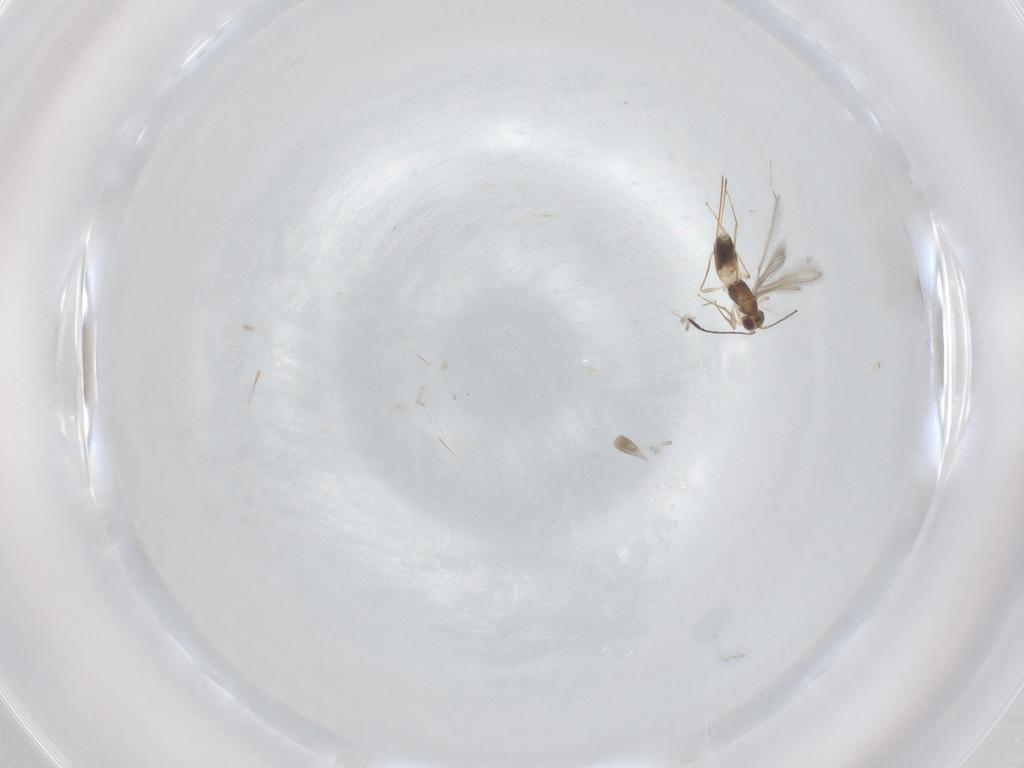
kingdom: Animalia
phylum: Arthropoda
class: Insecta
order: Hymenoptera
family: Mymaridae
